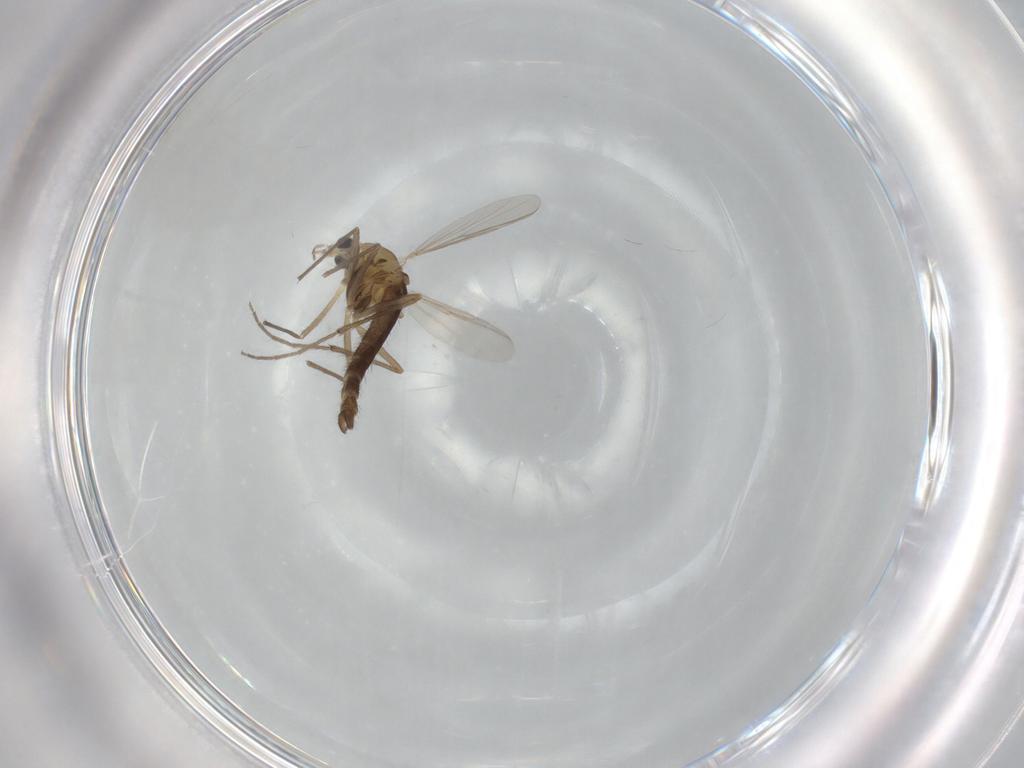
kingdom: Animalia
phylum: Arthropoda
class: Insecta
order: Diptera
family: Chironomidae
